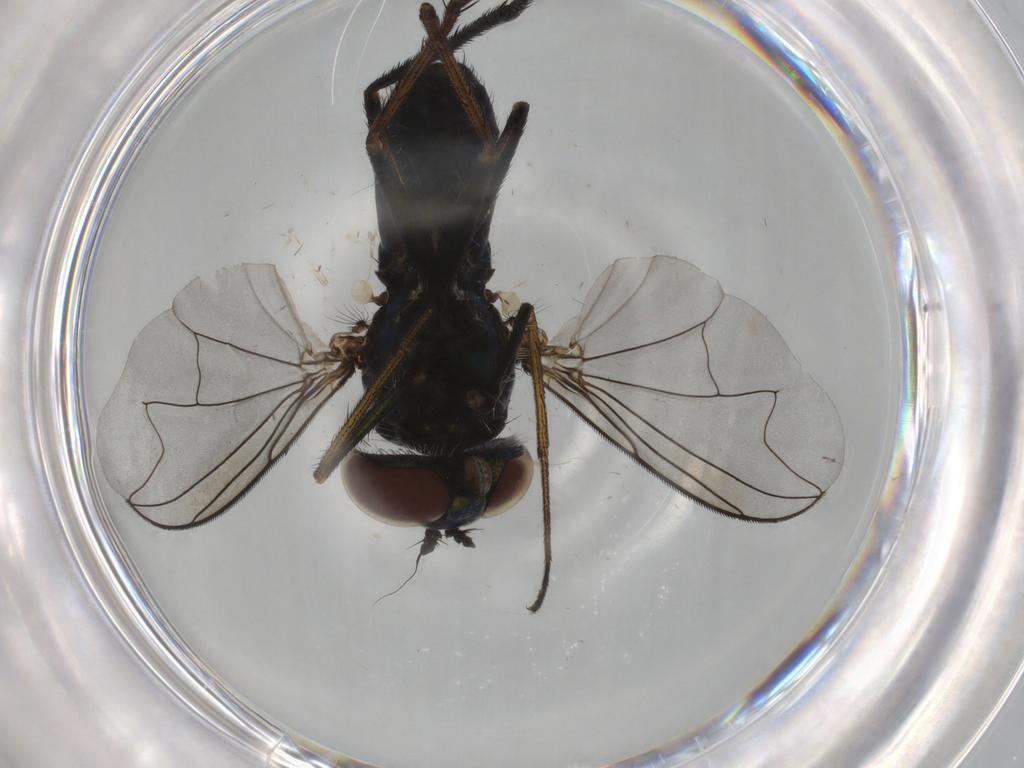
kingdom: Animalia
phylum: Arthropoda
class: Insecta
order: Diptera
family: Dolichopodidae
